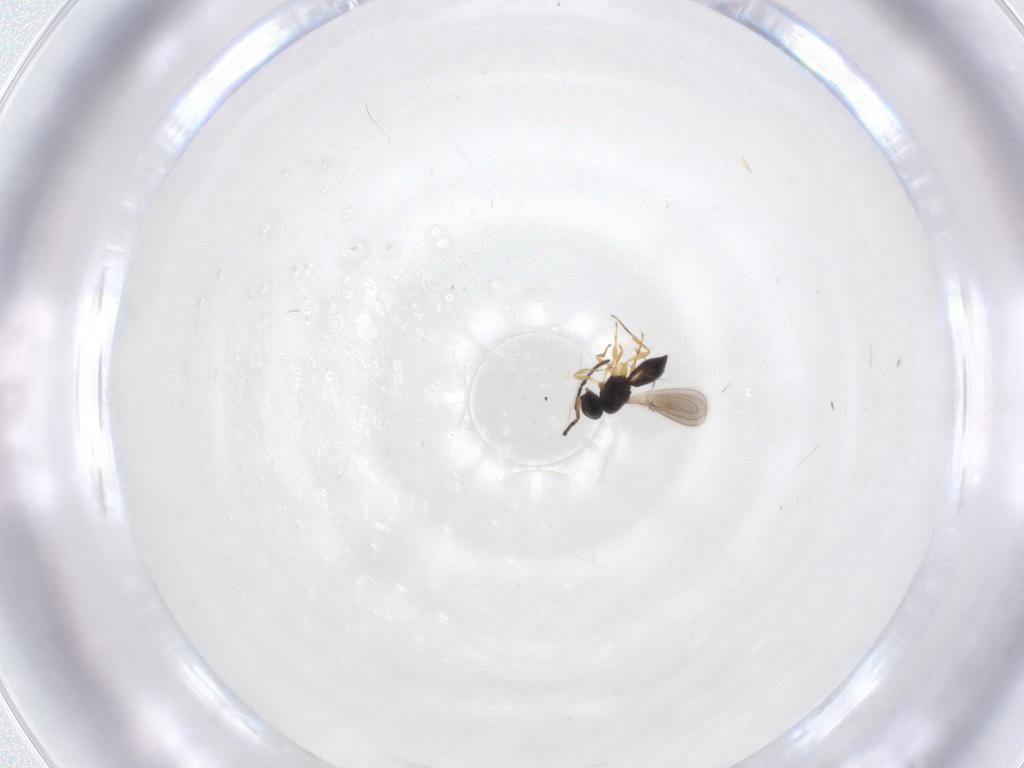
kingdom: Animalia
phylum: Arthropoda
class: Insecta
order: Hymenoptera
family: Scelionidae
